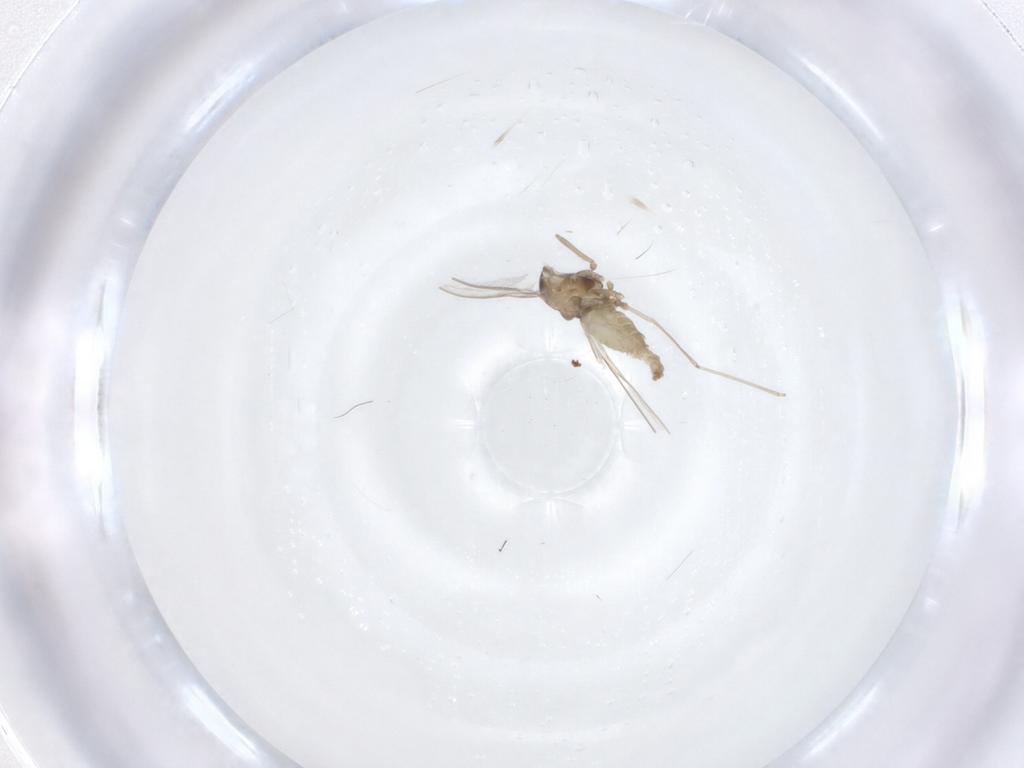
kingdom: Animalia
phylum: Arthropoda
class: Insecta
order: Diptera
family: Cecidomyiidae
